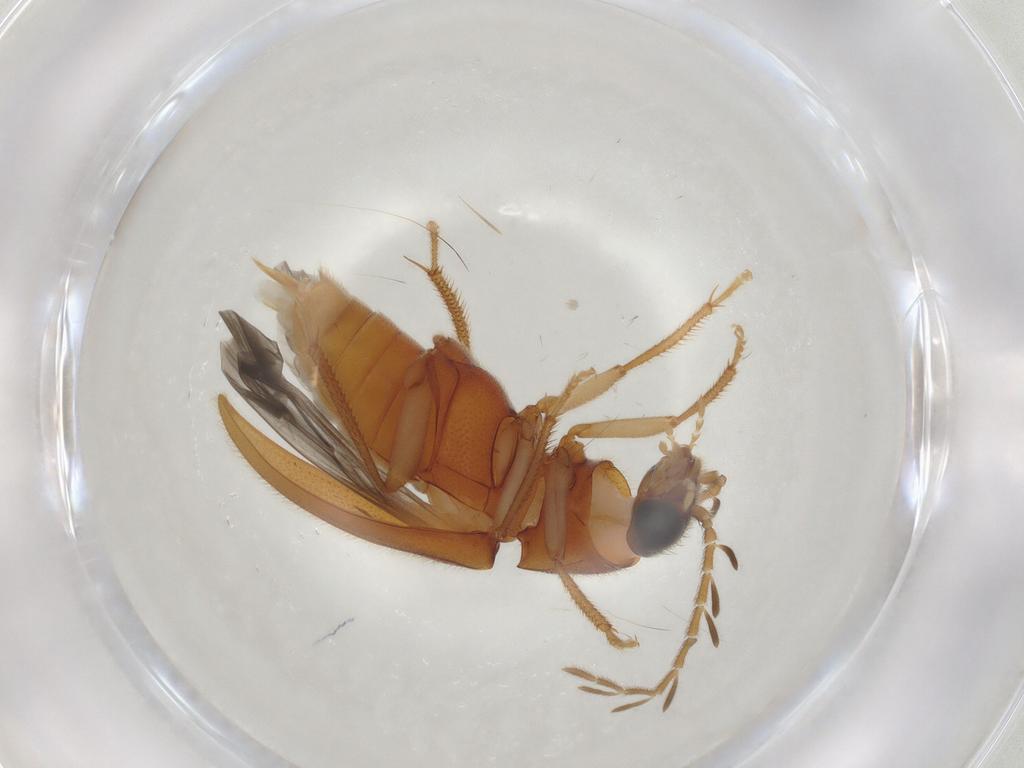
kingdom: Animalia
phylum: Arthropoda
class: Insecta
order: Coleoptera
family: Ptilodactylidae
